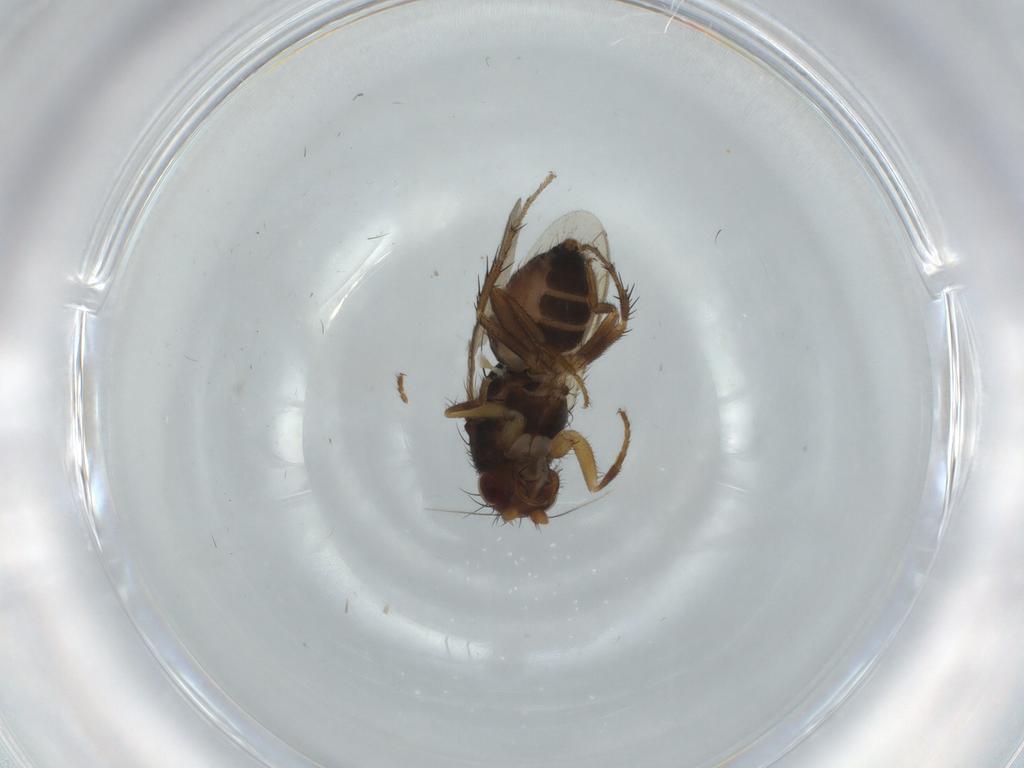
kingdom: Animalia
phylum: Arthropoda
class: Insecta
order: Diptera
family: Sphaeroceridae
